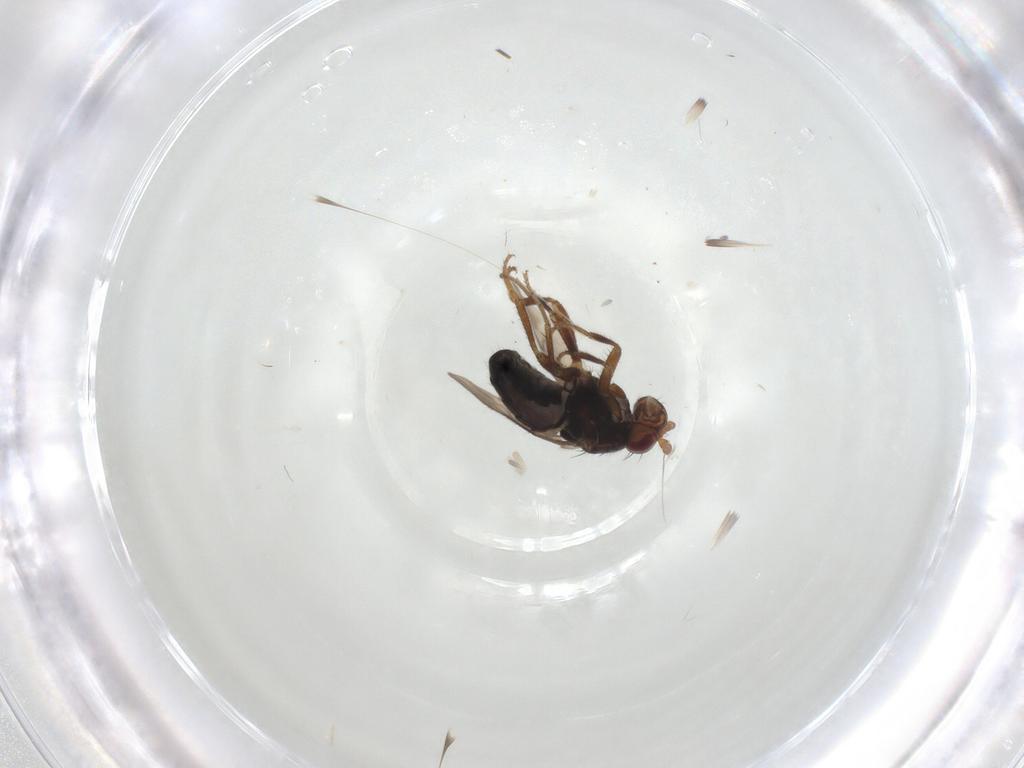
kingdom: Animalia
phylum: Arthropoda
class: Insecta
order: Diptera
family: Sphaeroceridae
